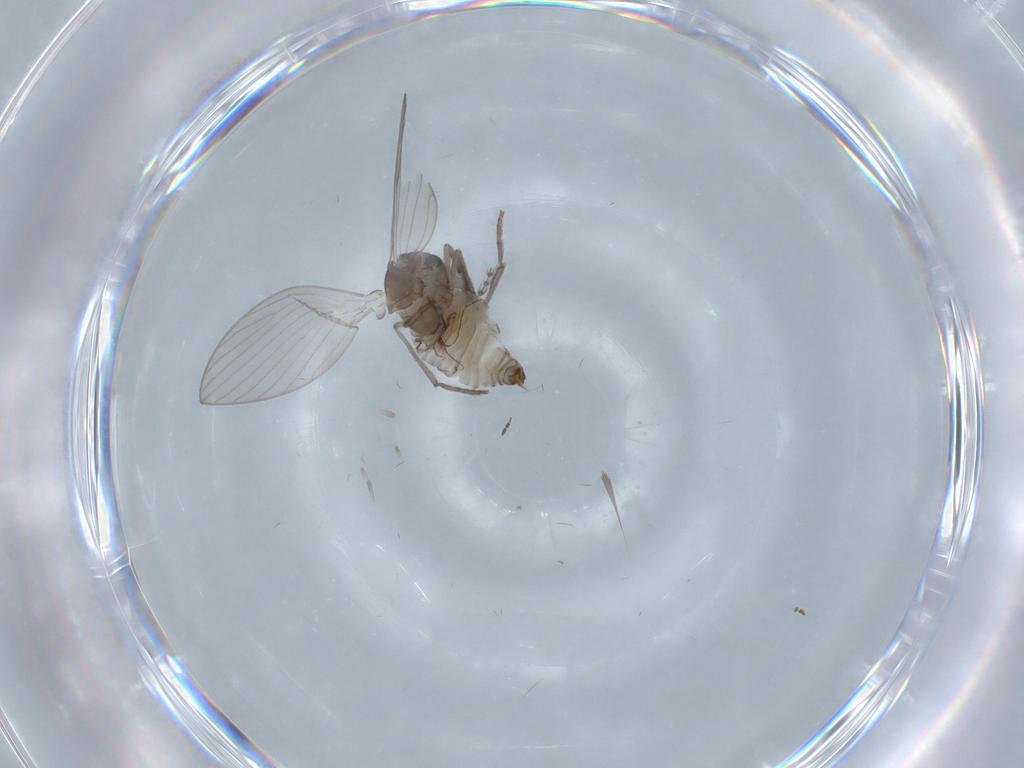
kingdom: Animalia
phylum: Arthropoda
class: Insecta
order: Diptera
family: Psychodidae
